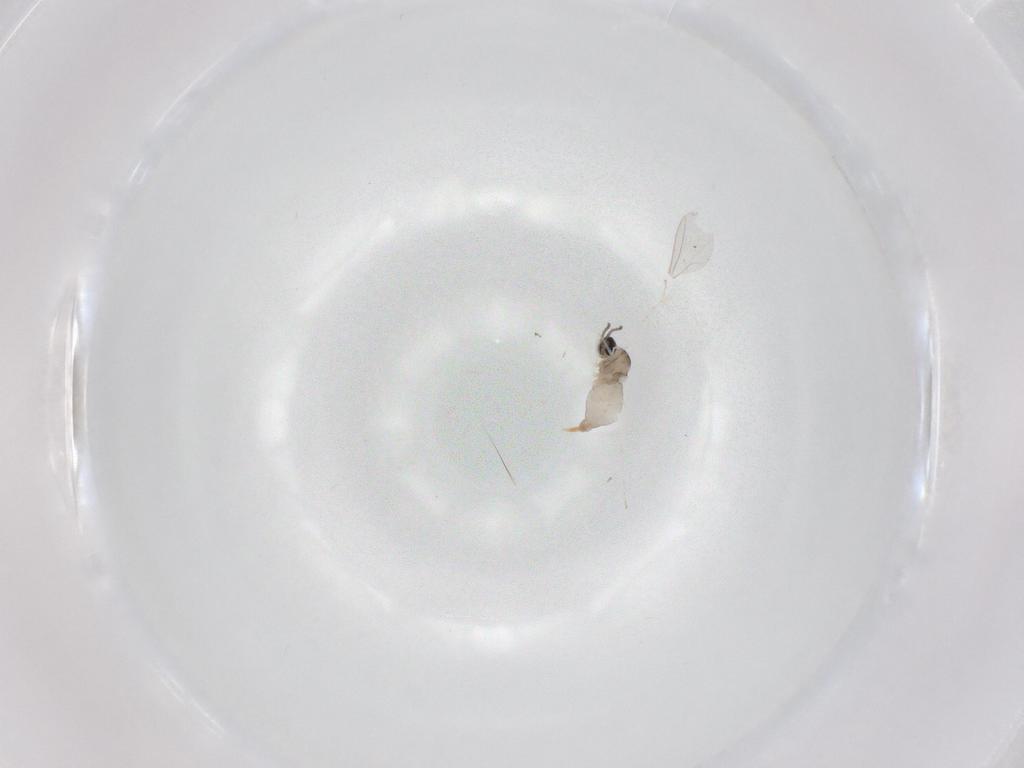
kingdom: Animalia
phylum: Arthropoda
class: Insecta
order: Diptera
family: Cecidomyiidae
